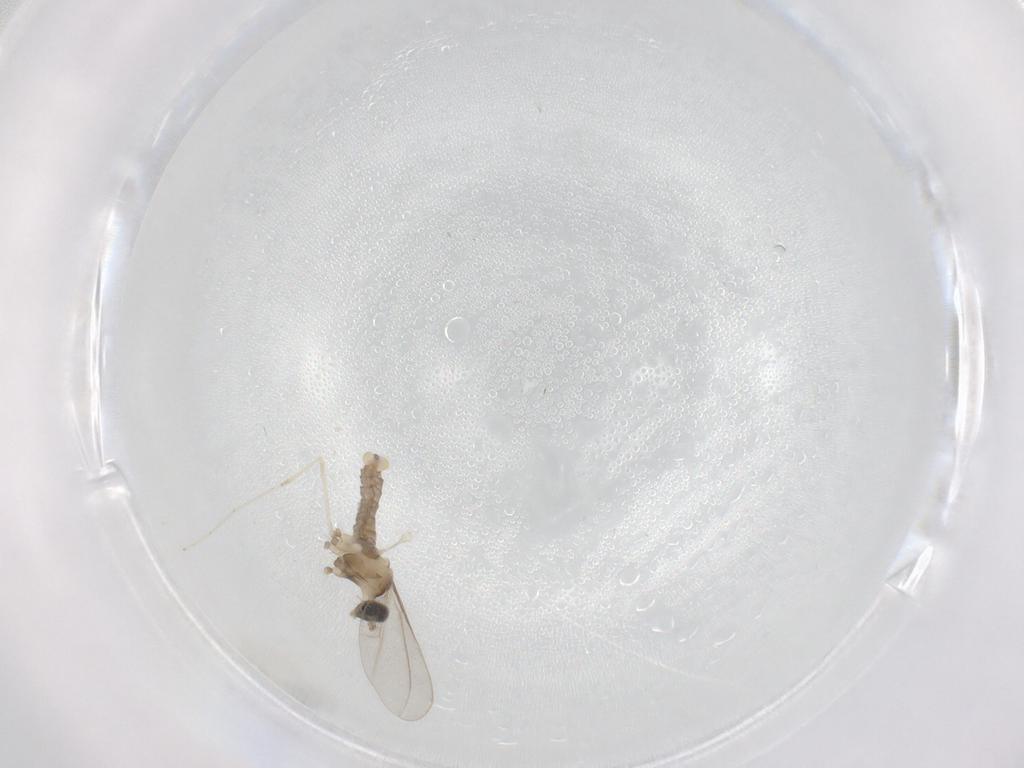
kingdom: Animalia
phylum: Arthropoda
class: Insecta
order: Diptera
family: Cecidomyiidae
